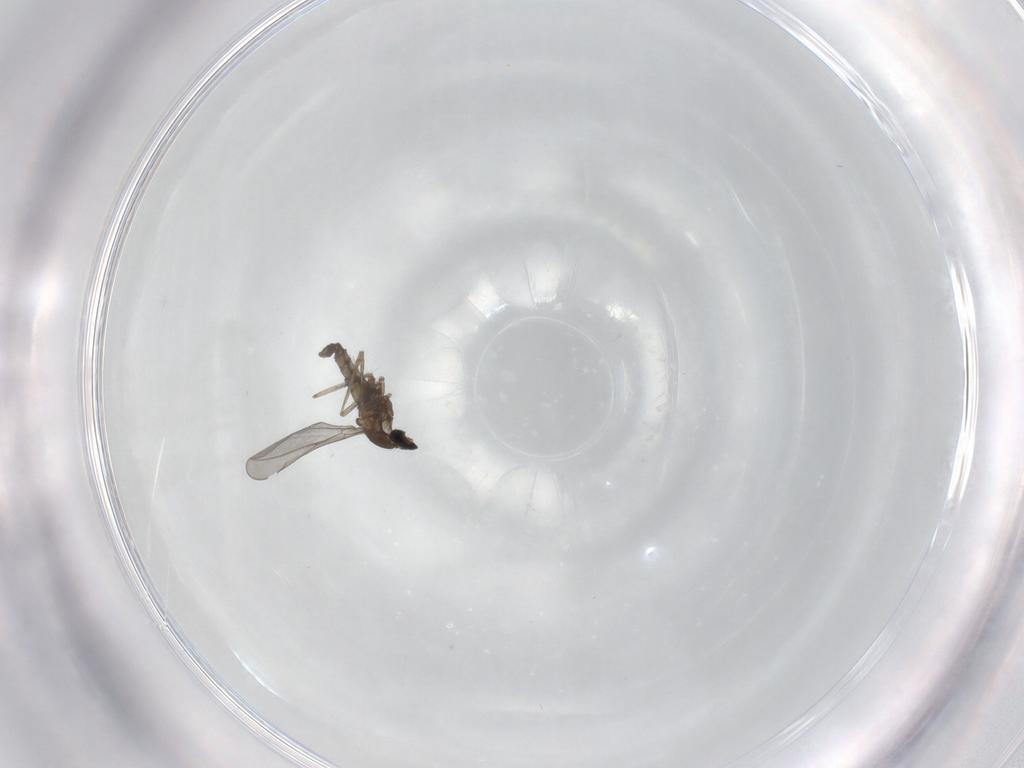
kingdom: Animalia
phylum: Arthropoda
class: Insecta
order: Diptera
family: Cecidomyiidae
